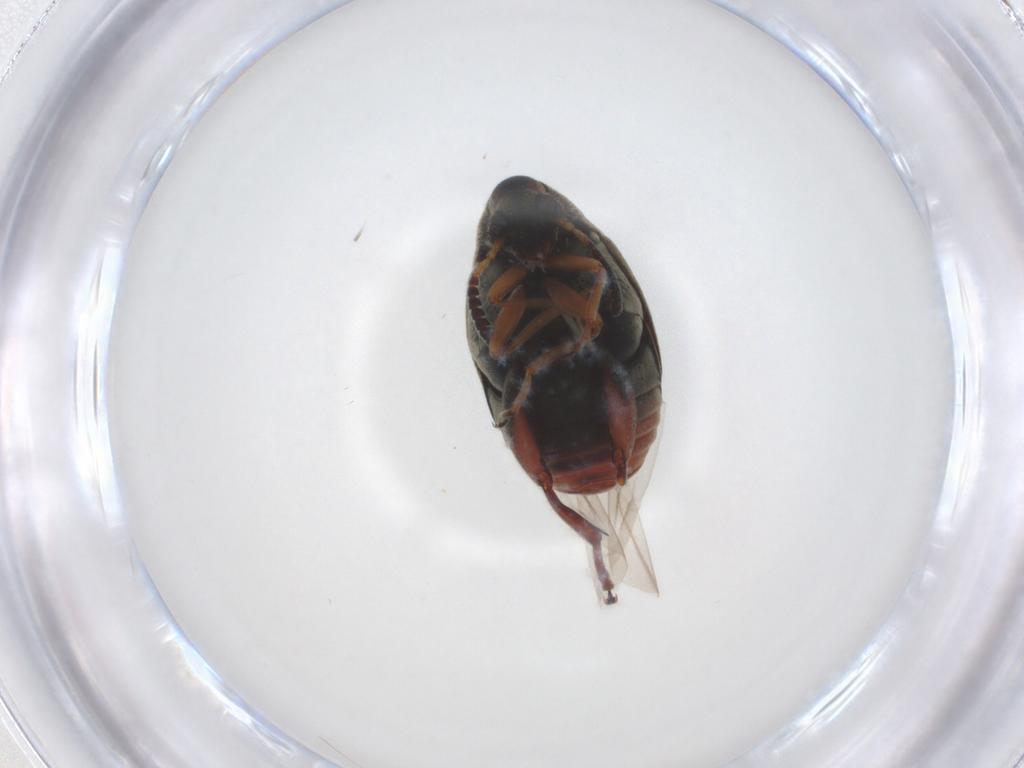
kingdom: Animalia
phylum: Arthropoda
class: Insecta
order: Coleoptera
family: Chrysomelidae
